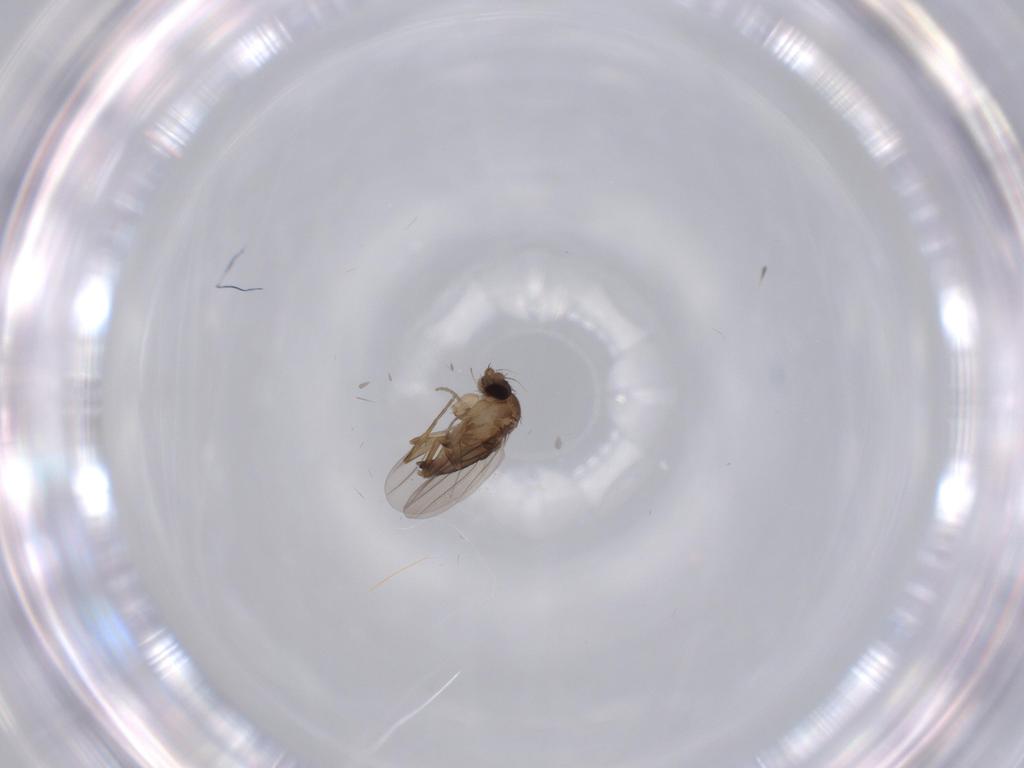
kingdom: Animalia
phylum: Arthropoda
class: Insecta
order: Diptera
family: Phoridae
